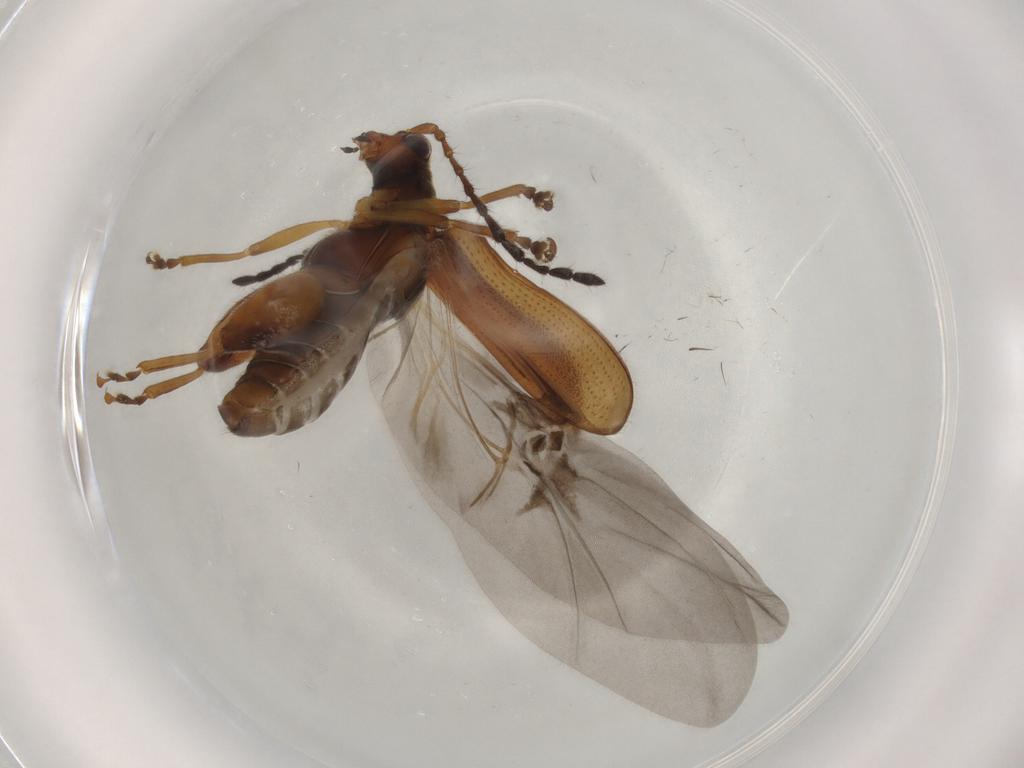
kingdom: Animalia
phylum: Arthropoda
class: Insecta
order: Coleoptera
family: Chrysomelidae
